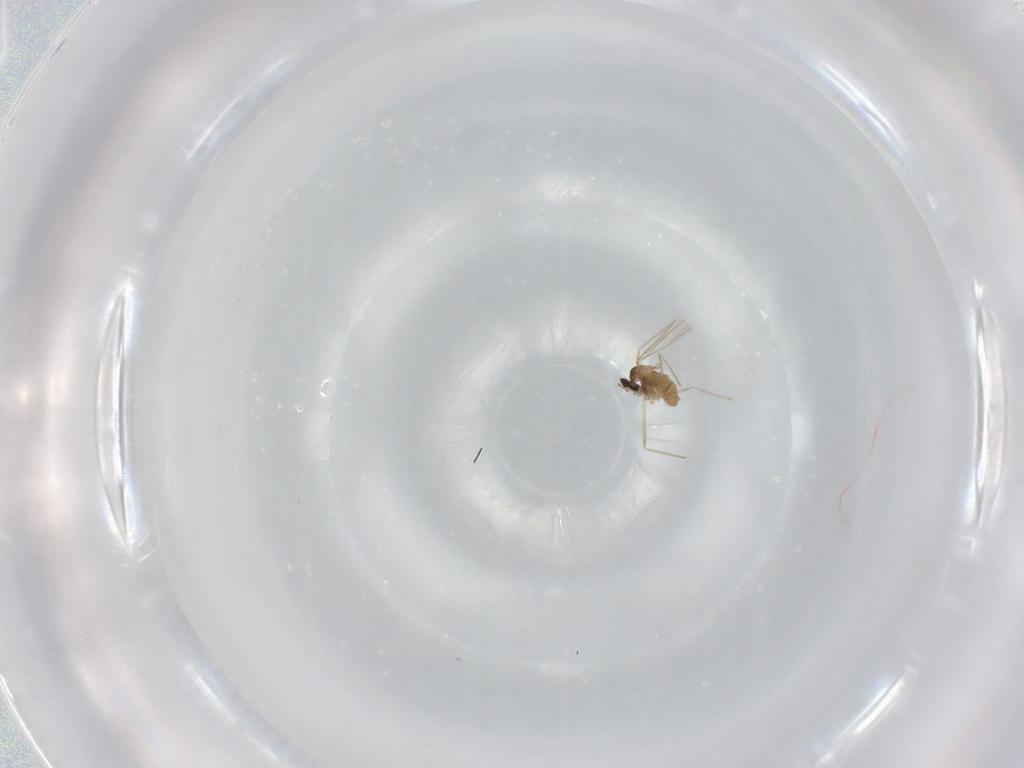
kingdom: Animalia
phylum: Arthropoda
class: Insecta
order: Diptera
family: Cecidomyiidae
